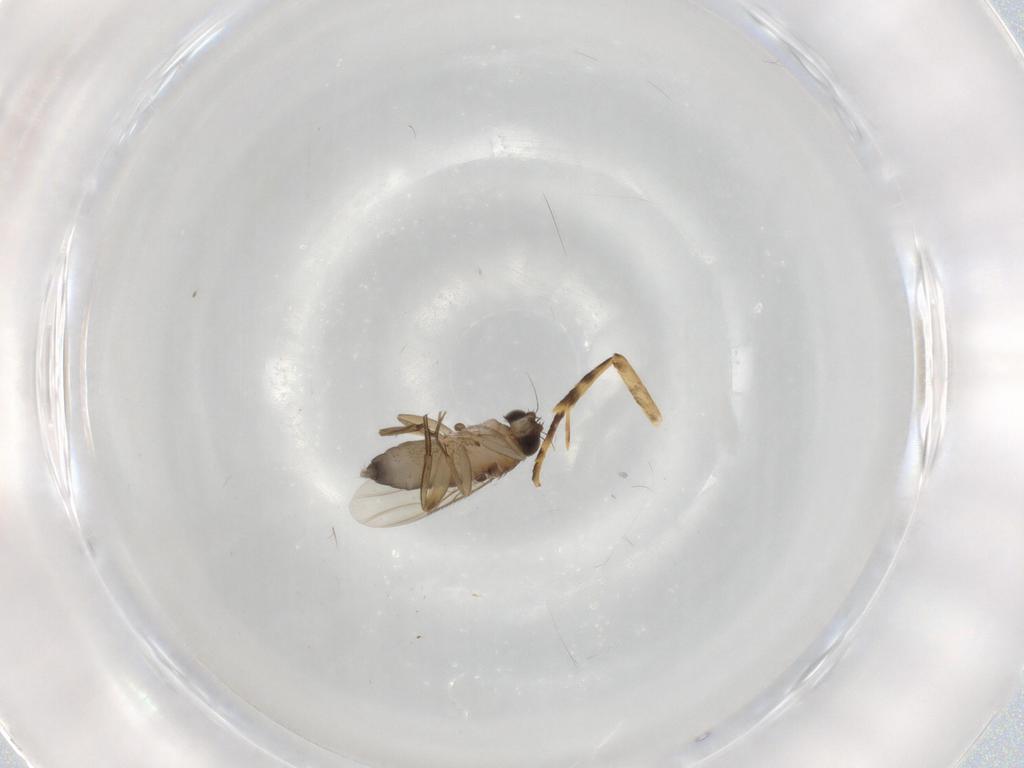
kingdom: Animalia
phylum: Arthropoda
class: Insecta
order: Diptera
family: Phoridae
